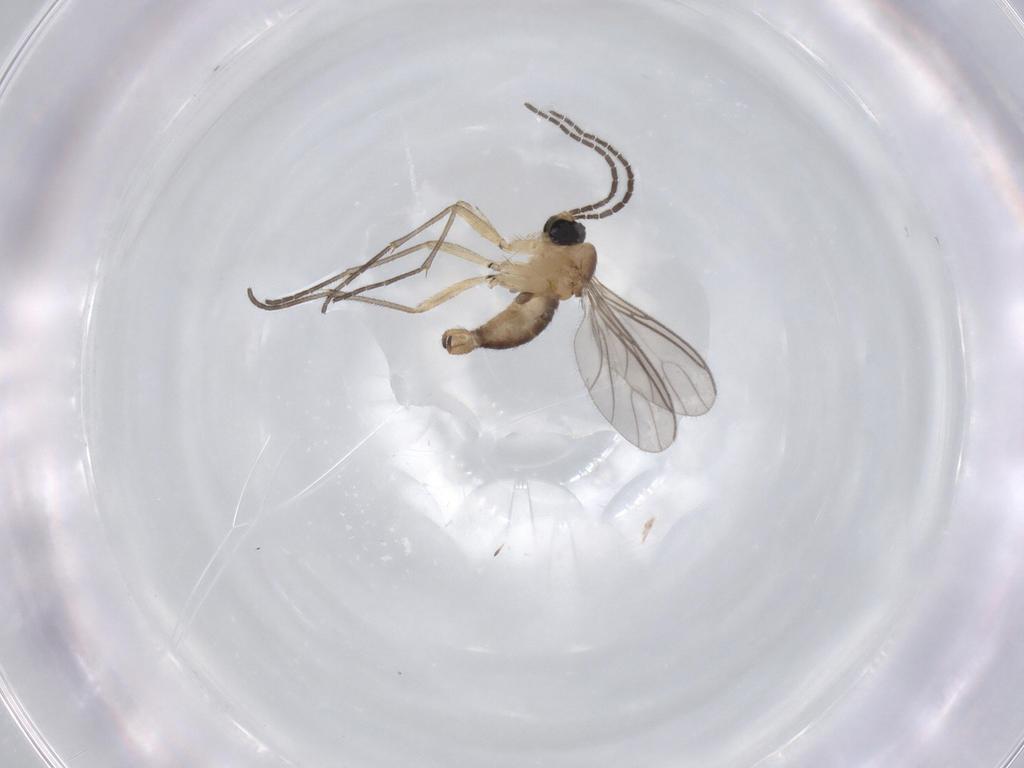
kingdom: Animalia
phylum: Arthropoda
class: Insecta
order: Diptera
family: Sciaridae
